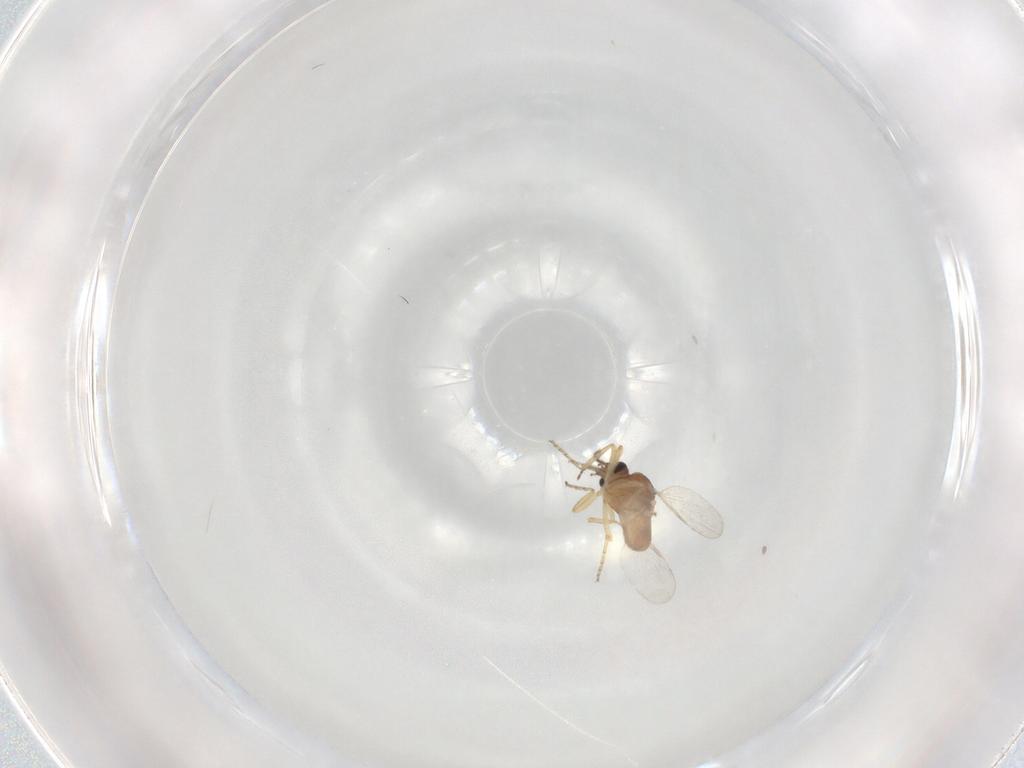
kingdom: Animalia
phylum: Arthropoda
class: Insecta
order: Diptera
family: Ceratopogonidae
